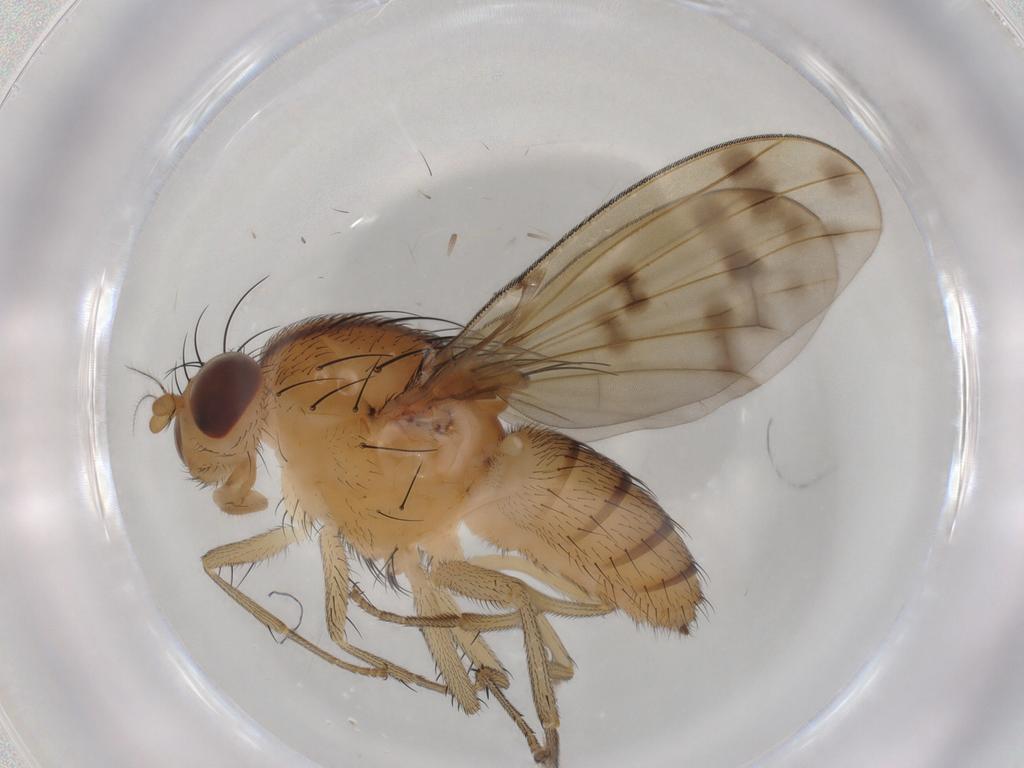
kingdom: Animalia
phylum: Arthropoda
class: Insecta
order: Diptera
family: Lauxaniidae
